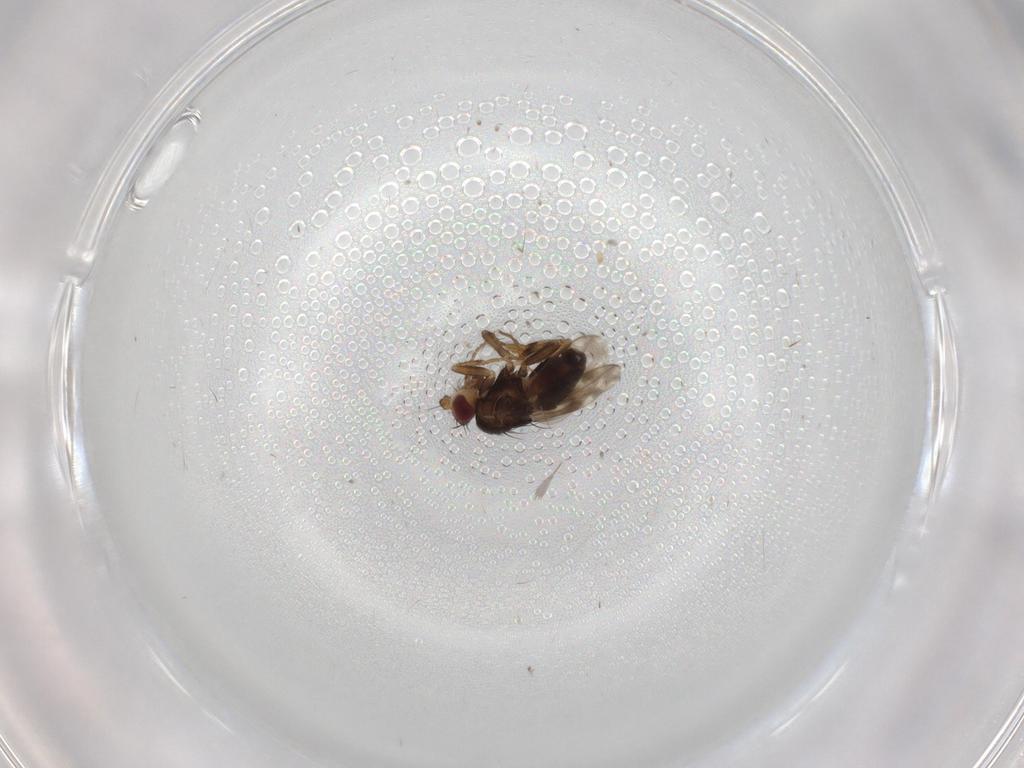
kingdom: Animalia
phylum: Arthropoda
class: Insecta
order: Diptera
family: Sphaeroceridae
